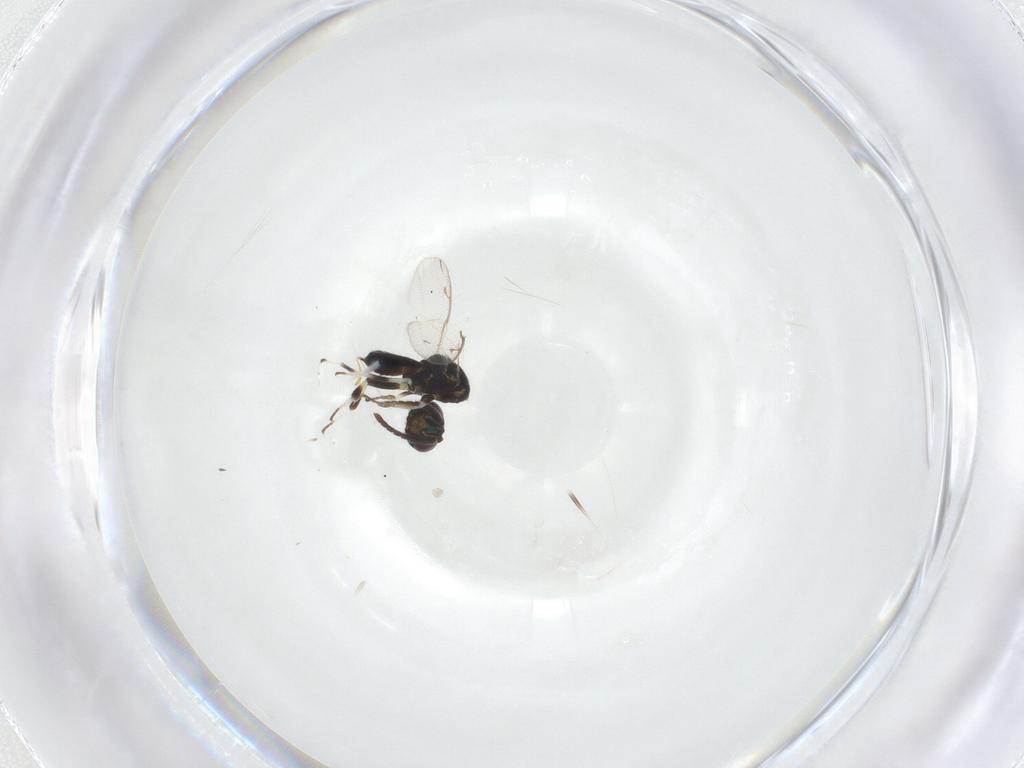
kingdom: Animalia
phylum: Arthropoda
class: Insecta
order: Hymenoptera
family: Eupelmidae
